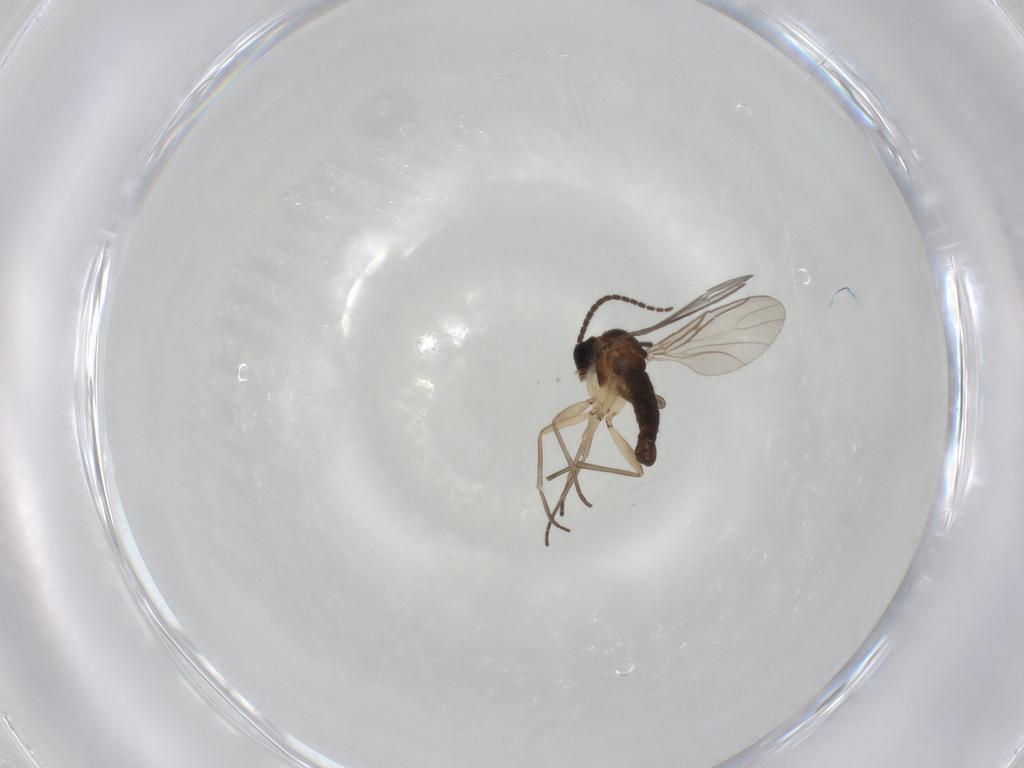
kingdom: Animalia
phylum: Arthropoda
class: Insecta
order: Diptera
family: Sciaridae
